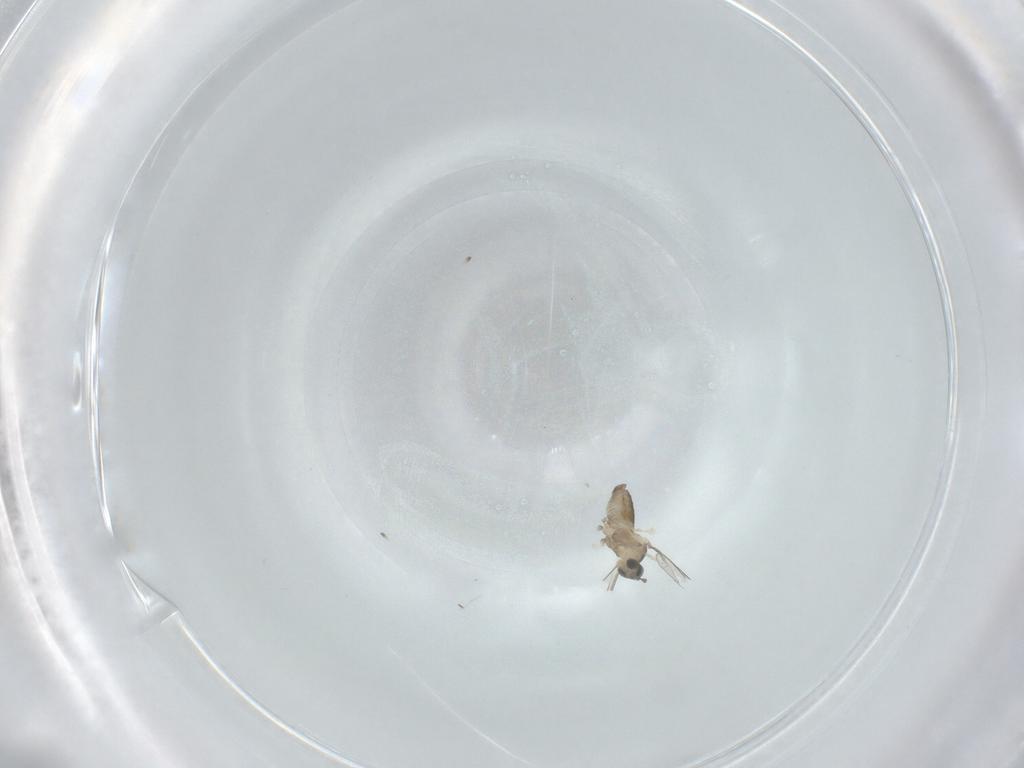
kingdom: Animalia
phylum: Arthropoda
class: Insecta
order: Diptera
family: Cecidomyiidae
